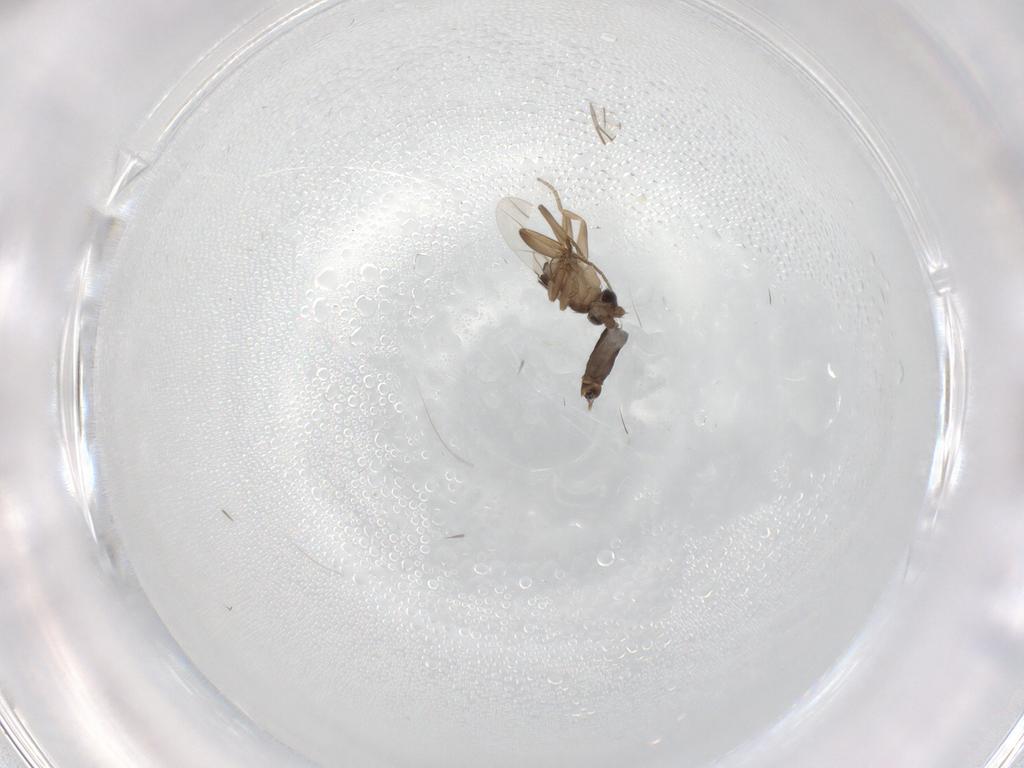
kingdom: Animalia
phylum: Arthropoda
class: Insecta
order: Diptera
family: Phoridae
